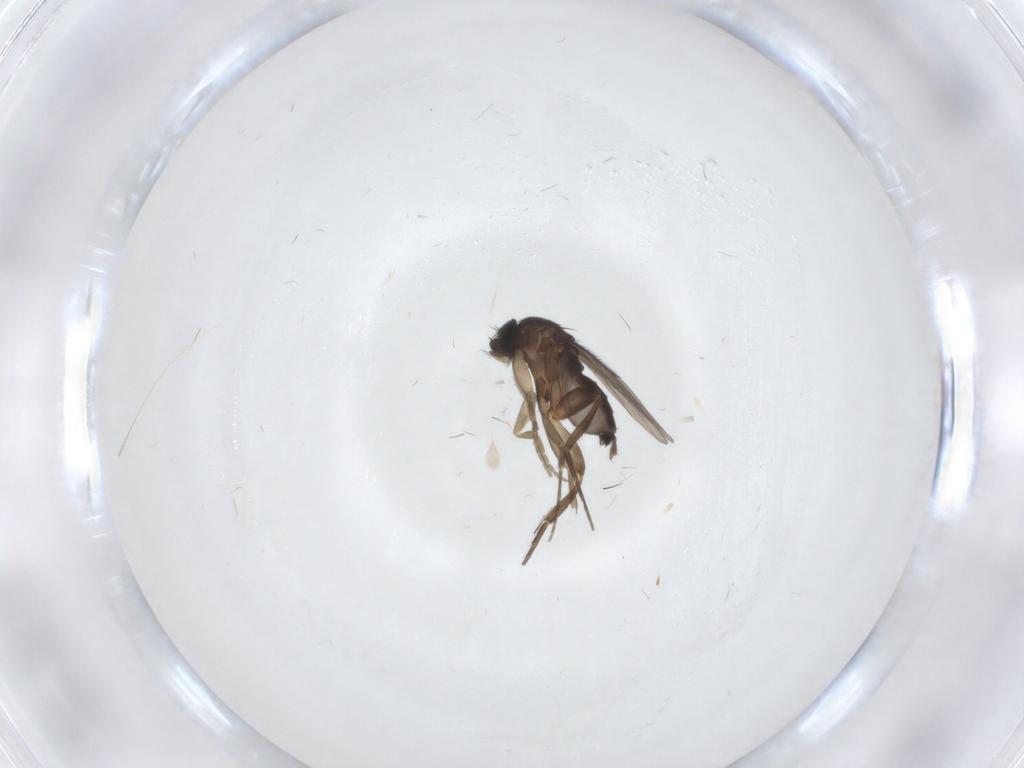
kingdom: Animalia
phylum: Arthropoda
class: Insecta
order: Diptera
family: Phoridae
